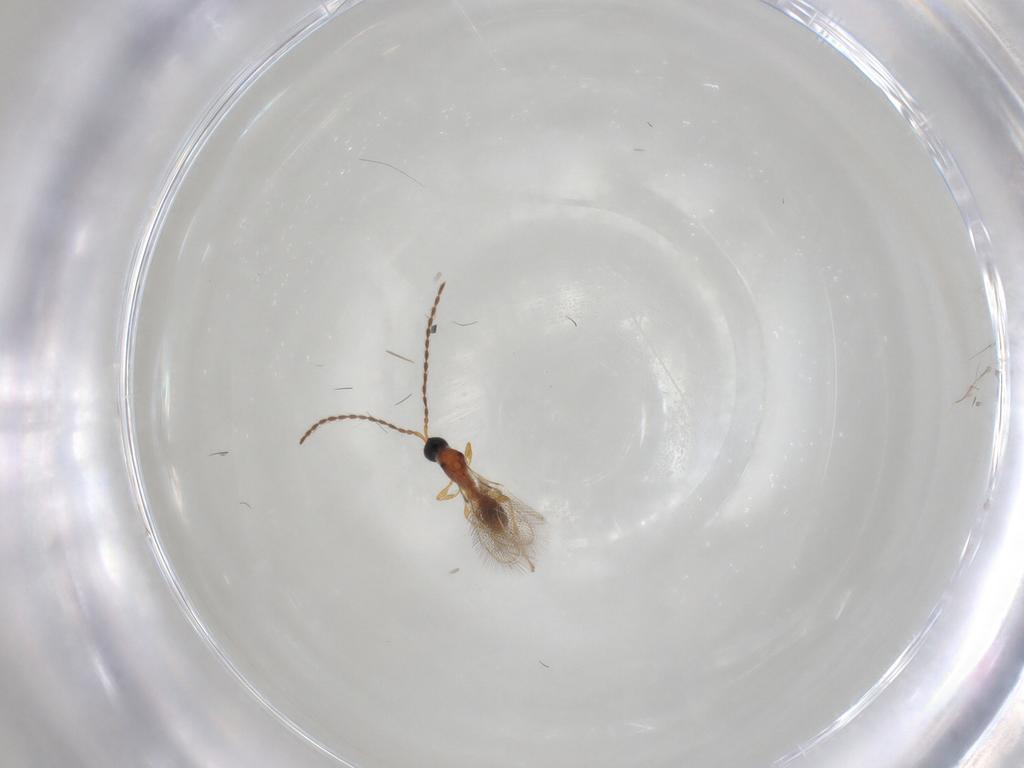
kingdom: Animalia
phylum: Arthropoda
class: Insecta
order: Hymenoptera
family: Diapriidae
